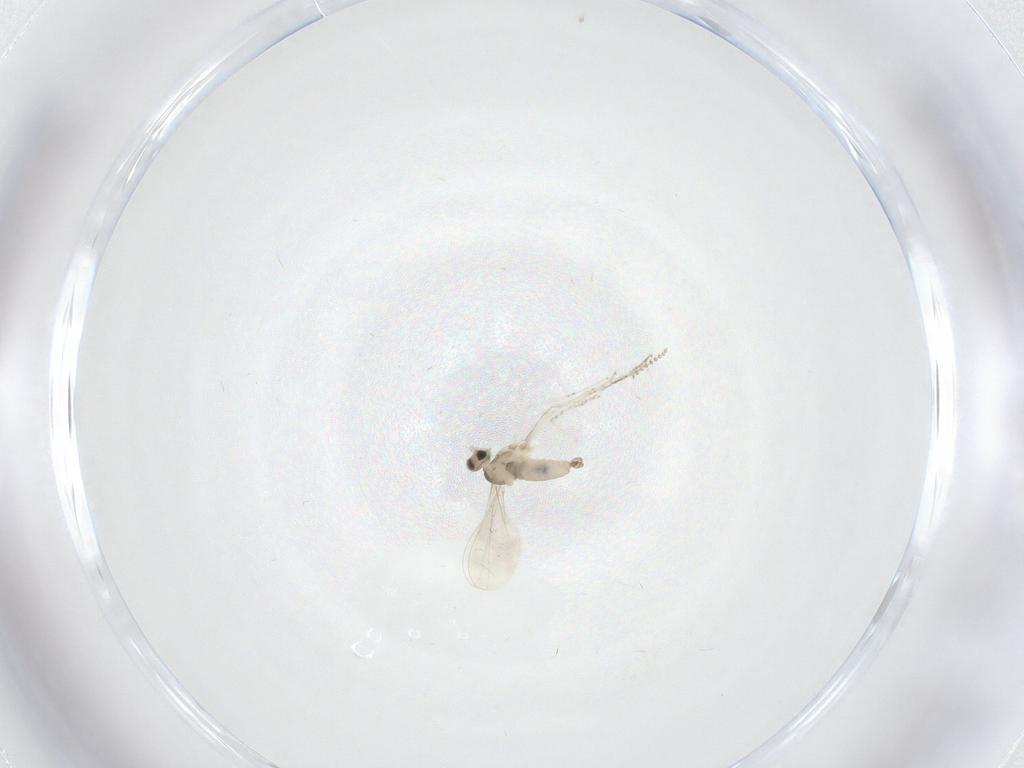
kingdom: Animalia
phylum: Arthropoda
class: Insecta
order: Diptera
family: Psychodidae
